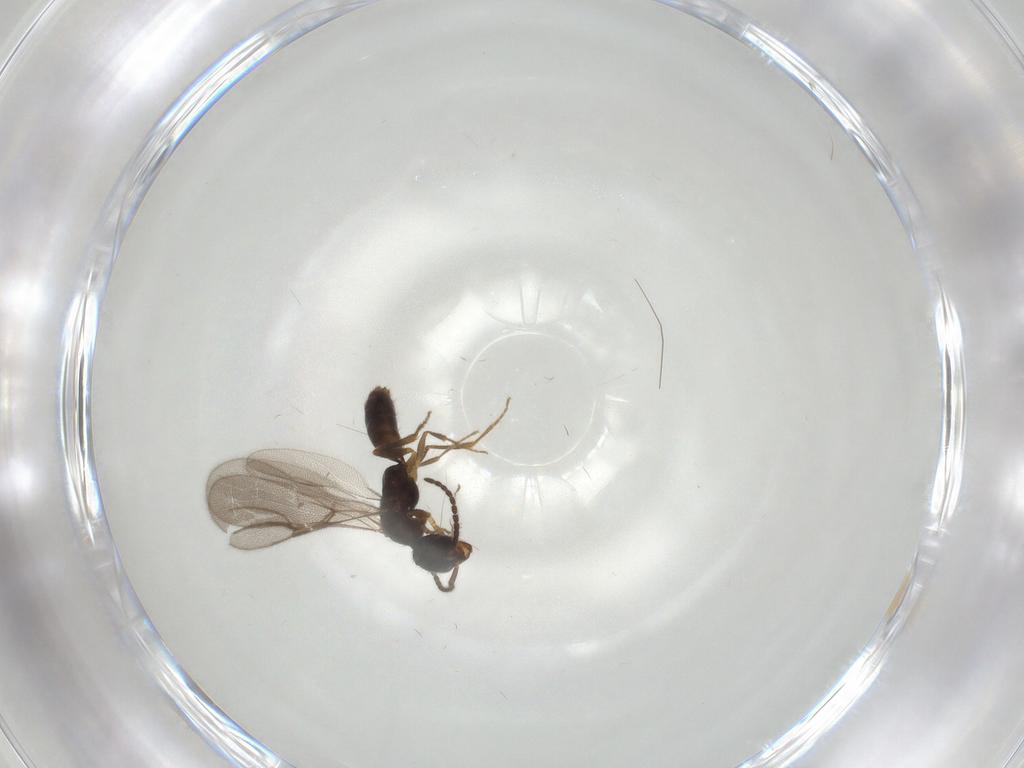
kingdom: Animalia
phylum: Arthropoda
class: Insecta
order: Hymenoptera
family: Bethylidae
